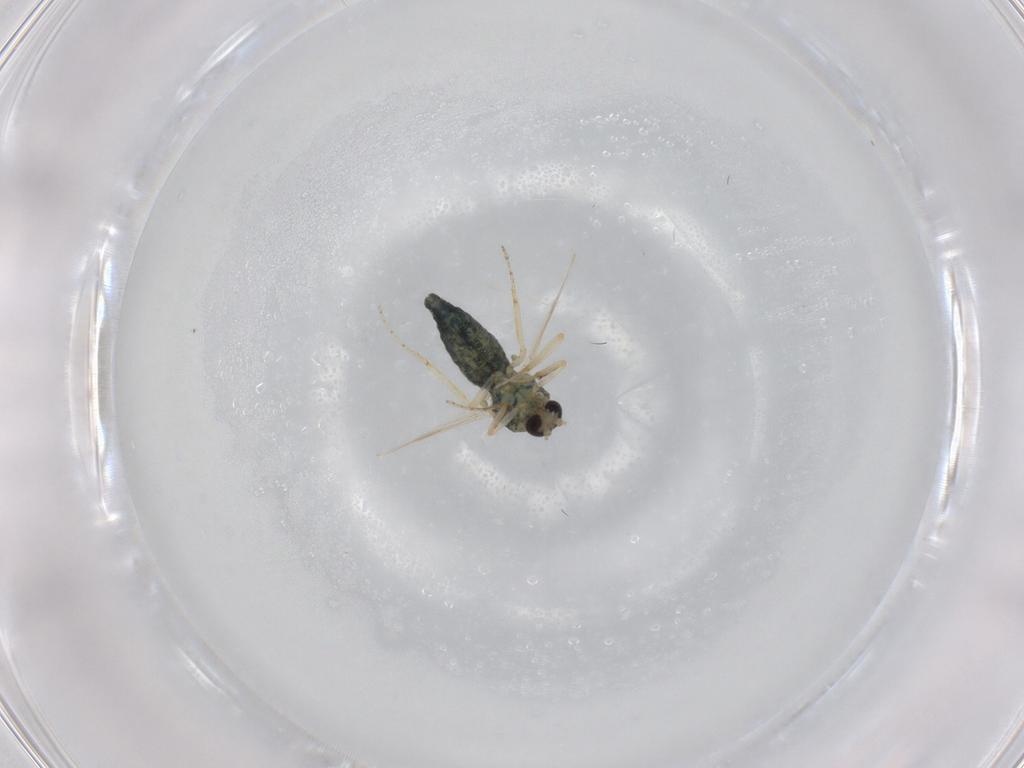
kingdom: Animalia
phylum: Arthropoda
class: Insecta
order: Diptera
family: Ceratopogonidae
